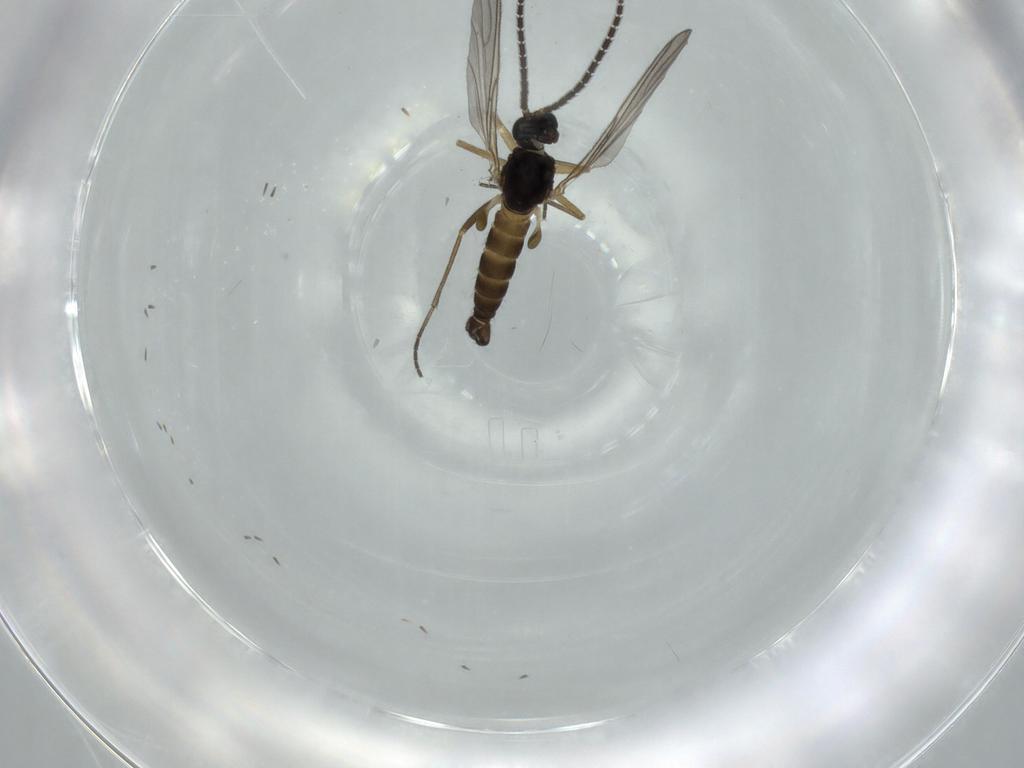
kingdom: Animalia
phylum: Arthropoda
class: Insecta
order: Diptera
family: Sciaridae
